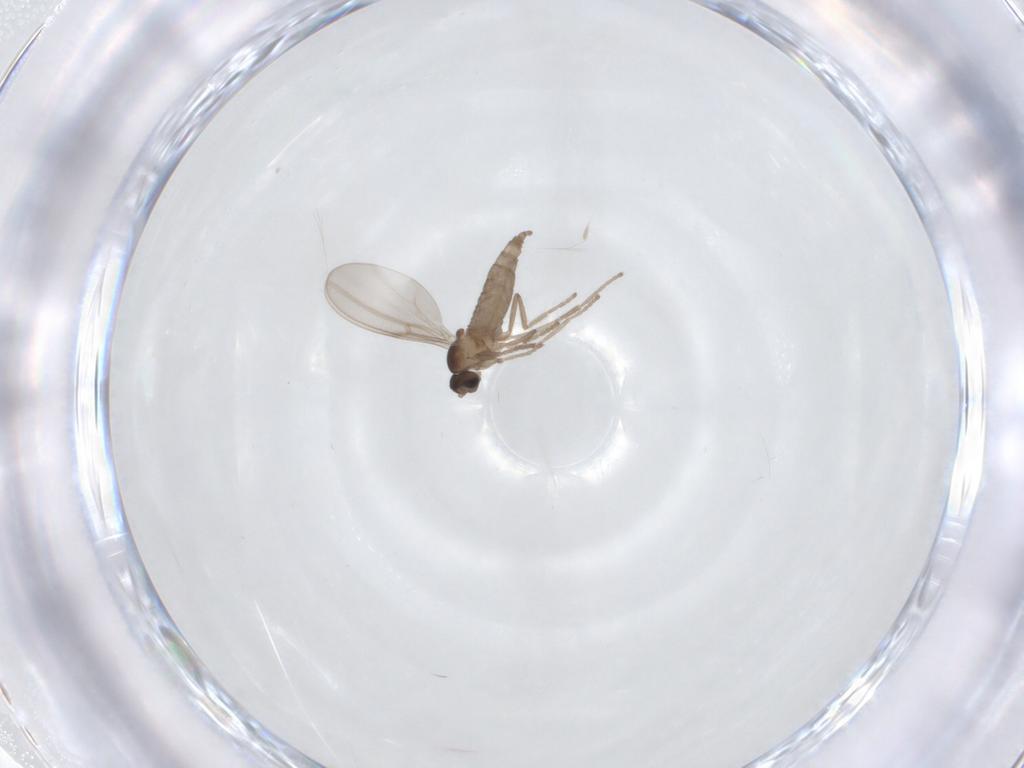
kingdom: Animalia
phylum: Arthropoda
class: Insecta
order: Diptera
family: Cecidomyiidae
